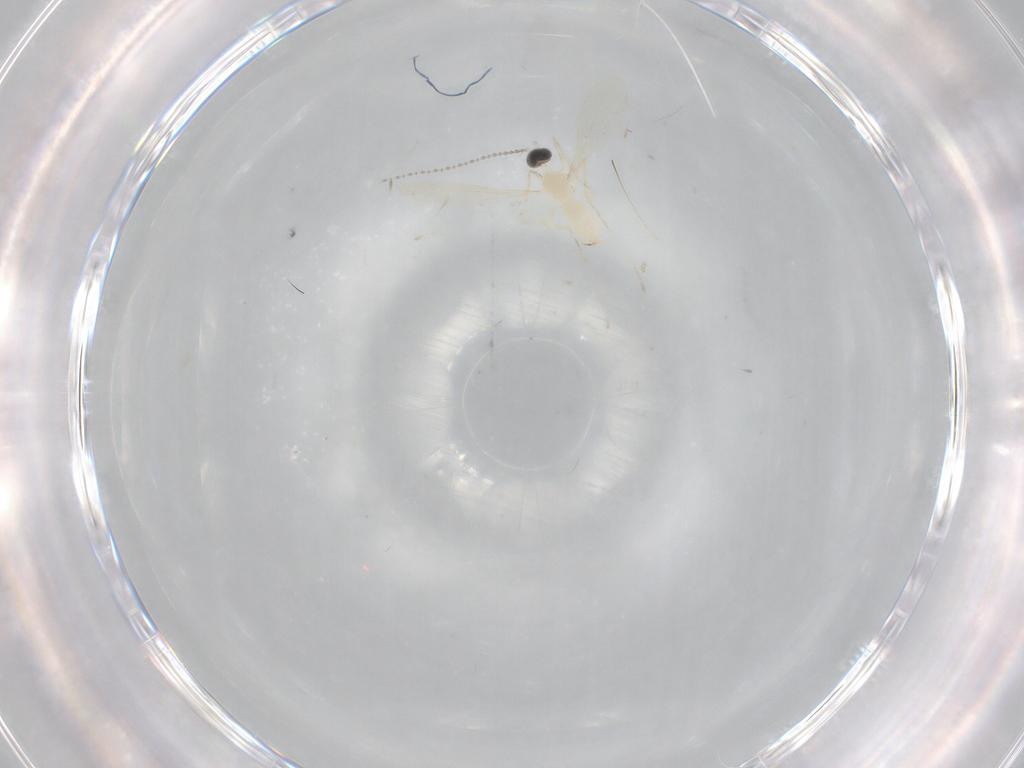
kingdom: Animalia
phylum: Arthropoda
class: Insecta
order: Diptera
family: Cecidomyiidae
